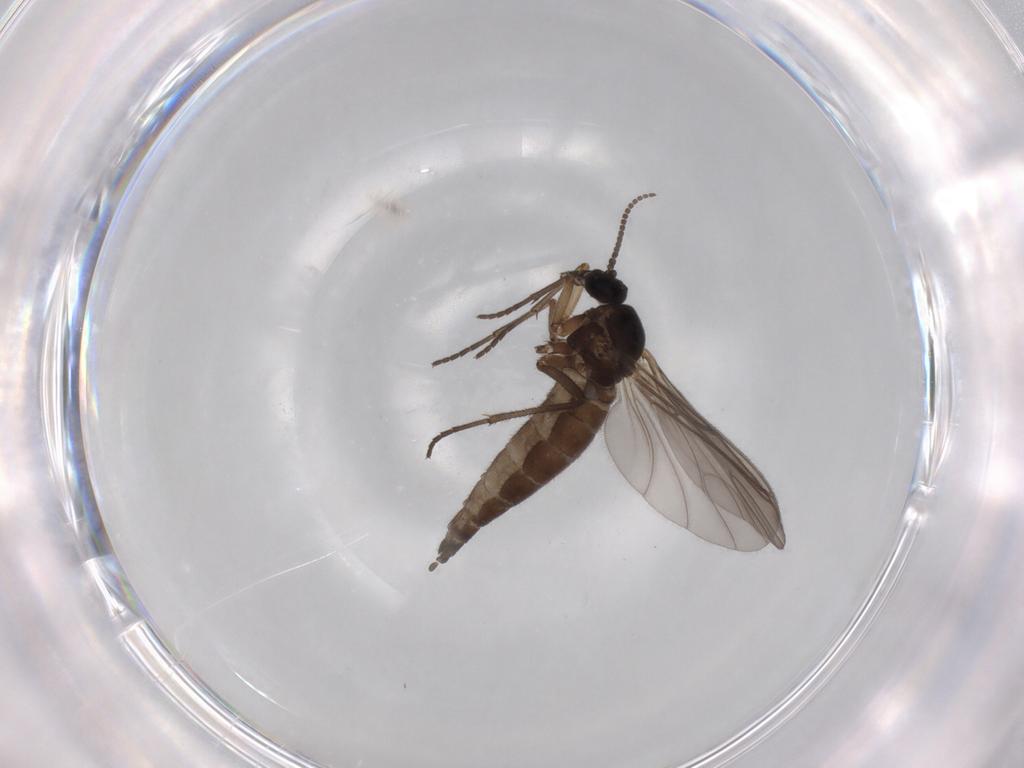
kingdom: Animalia
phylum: Arthropoda
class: Insecta
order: Diptera
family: Sciaridae
